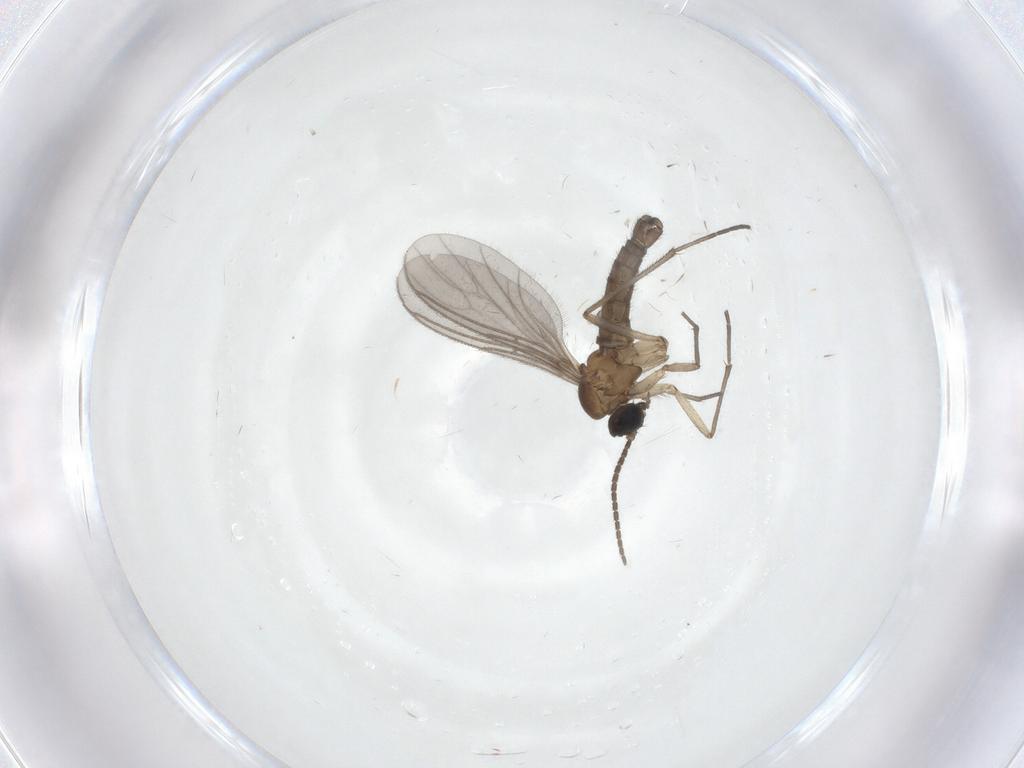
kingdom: Animalia
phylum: Arthropoda
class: Insecta
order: Diptera
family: Sciaridae
